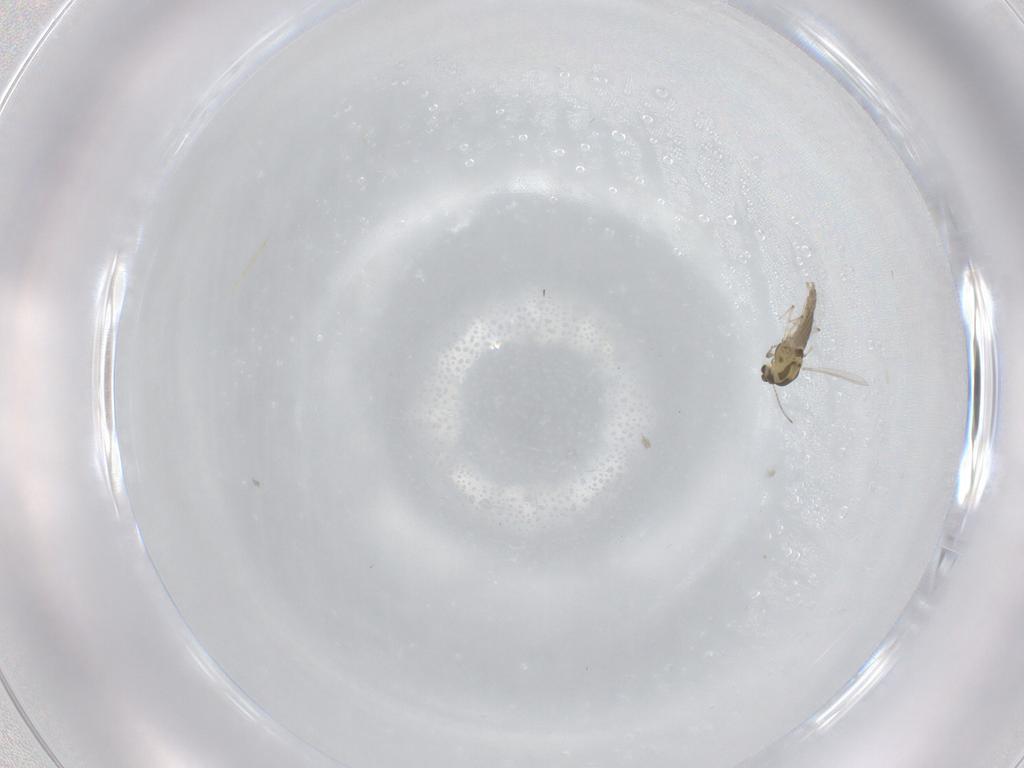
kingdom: Animalia
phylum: Arthropoda
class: Insecta
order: Diptera
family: Chironomidae
